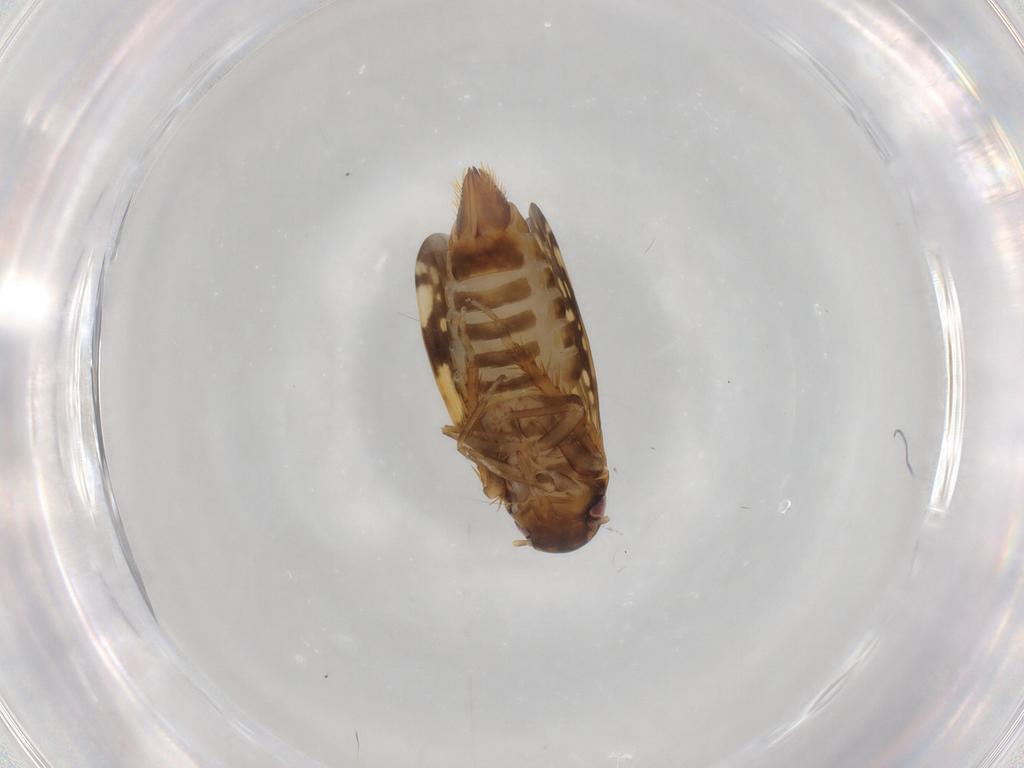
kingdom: Animalia
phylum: Arthropoda
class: Insecta
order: Hemiptera
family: Cicadellidae
